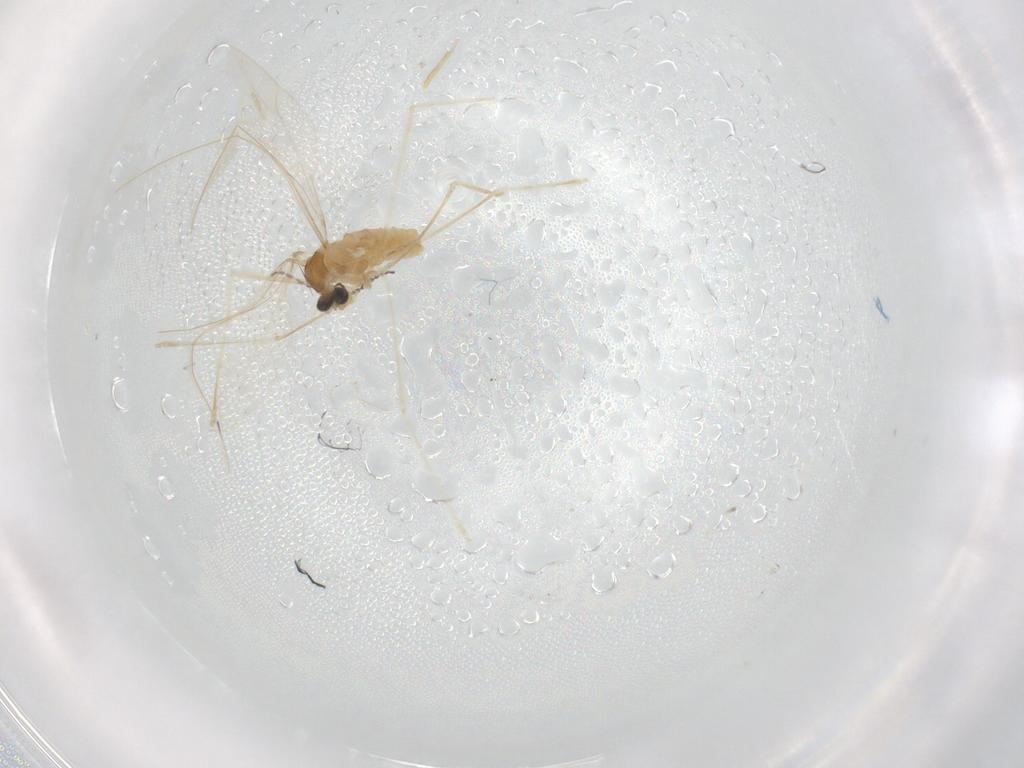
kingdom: Animalia
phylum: Arthropoda
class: Insecta
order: Diptera
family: Cecidomyiidae
